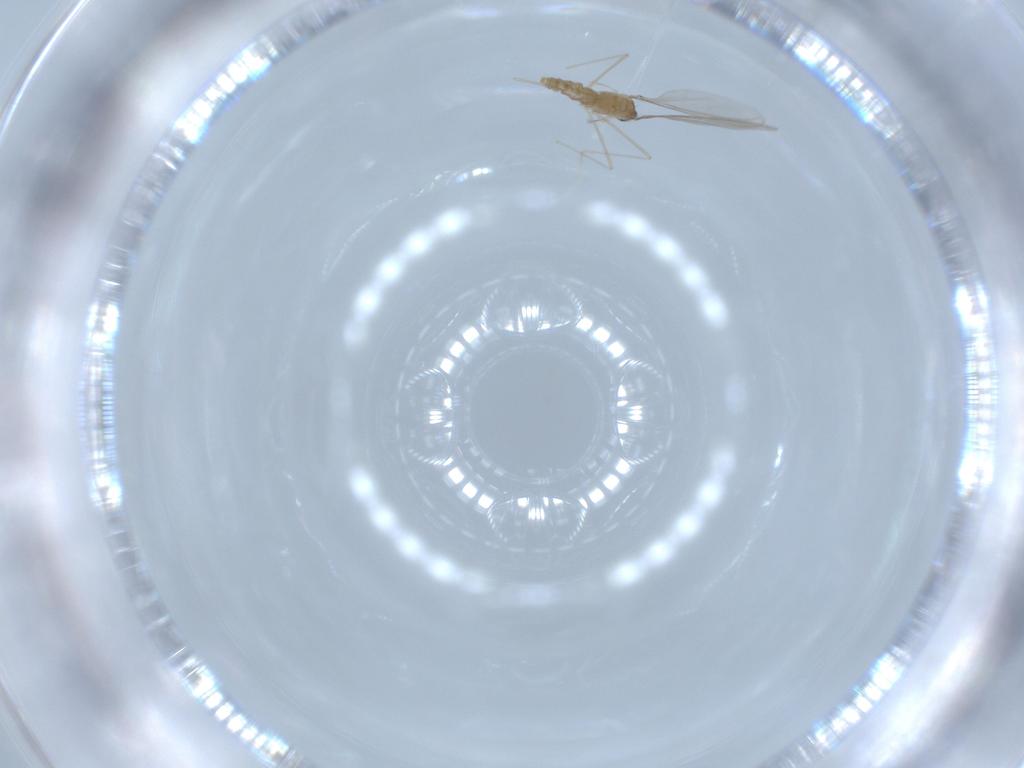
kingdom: Animalia
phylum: Arthropoda
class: Insecta
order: Diptera
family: Cecidomyiidae
